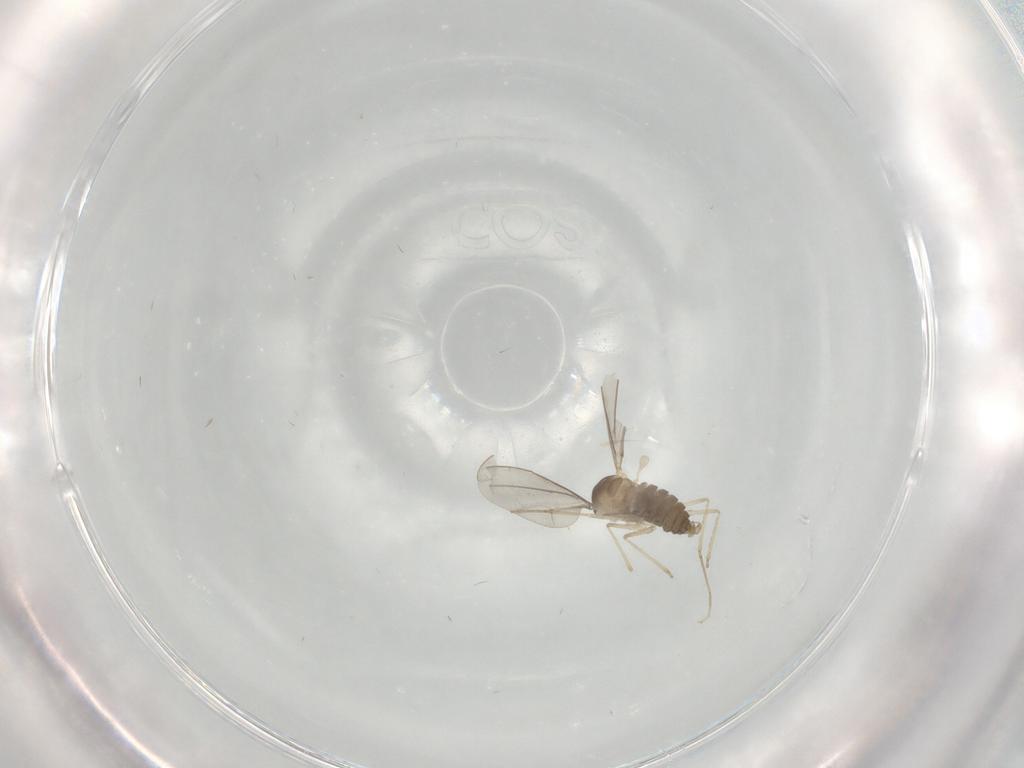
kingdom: Animalia
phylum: Arthropoda
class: Insecta
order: Diptera
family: Cecidomyiidae
